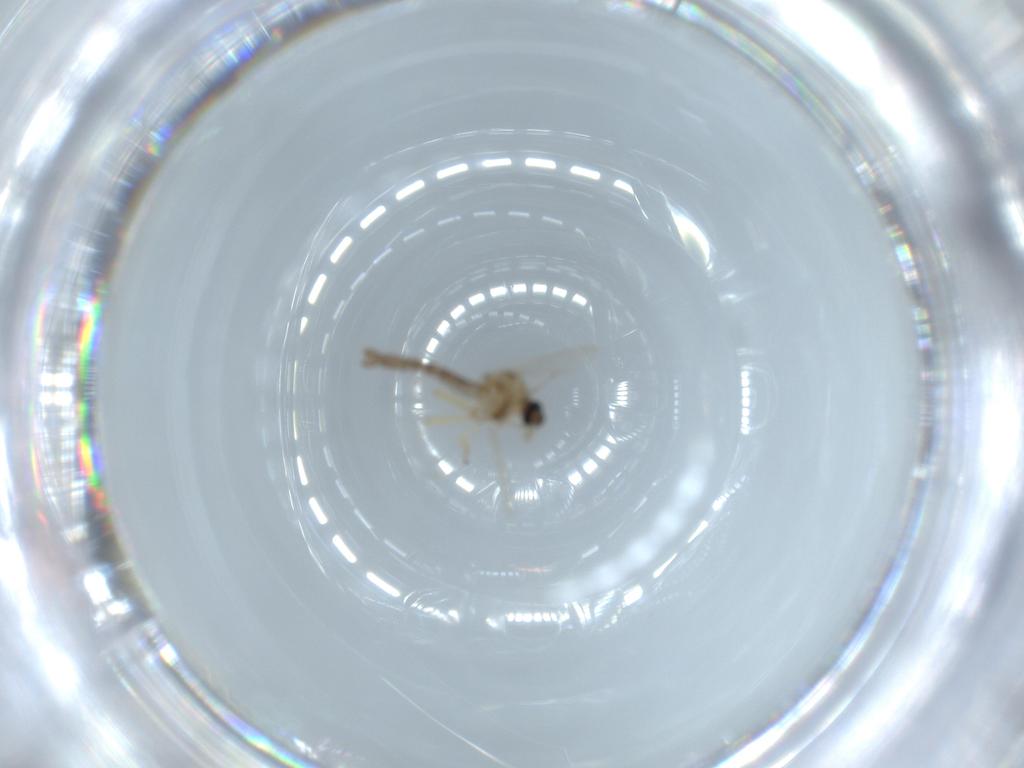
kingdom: Animalia
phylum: Arthropoda
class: Insecta
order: Diptera
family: Ceratopogonidae
